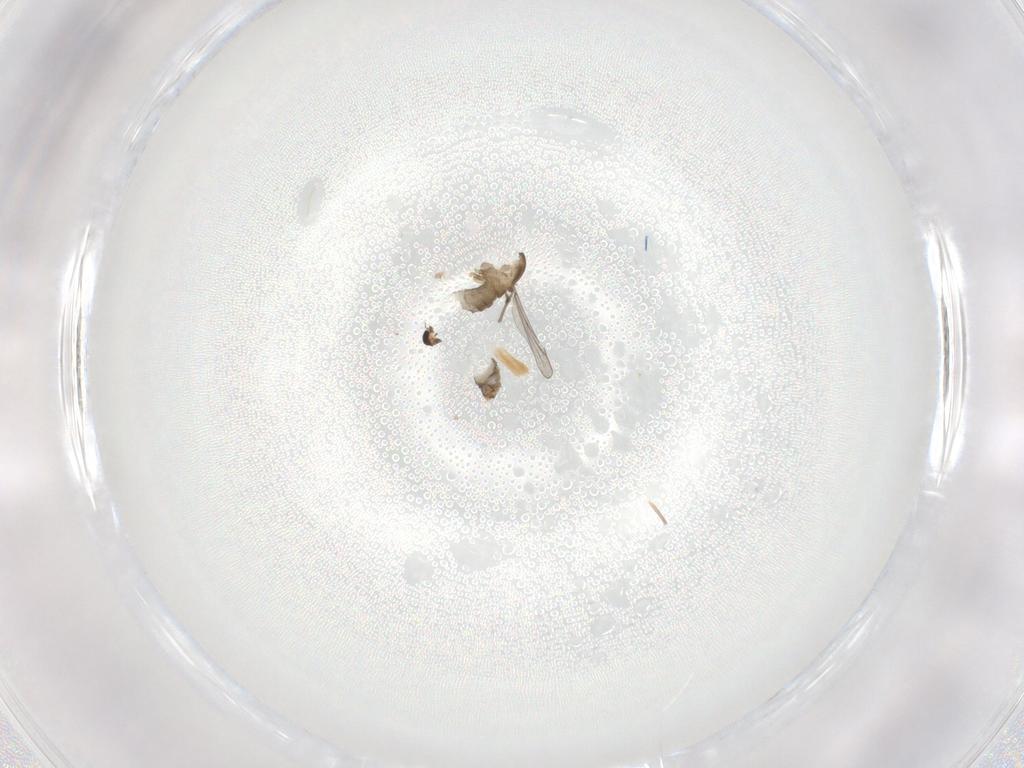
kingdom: Animalia
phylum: Arthropoda
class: Insecta
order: Diptera
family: Chironomidae
